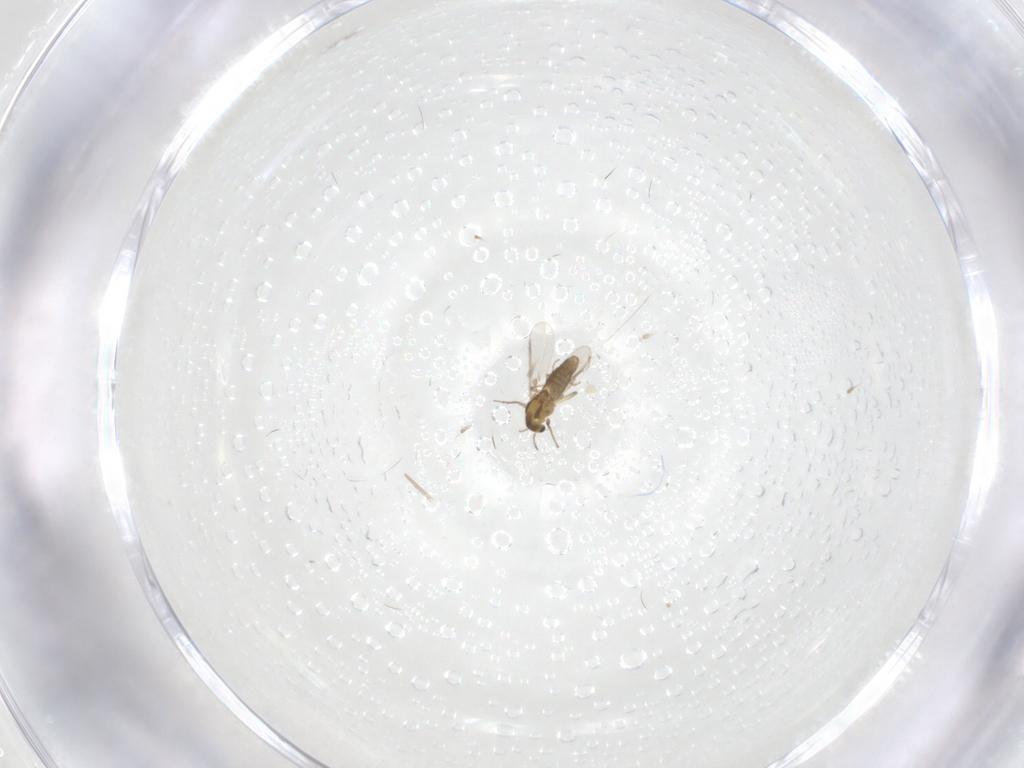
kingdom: Animalia
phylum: Arthropoda
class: Insecta
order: Diptera
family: Chironomidae
